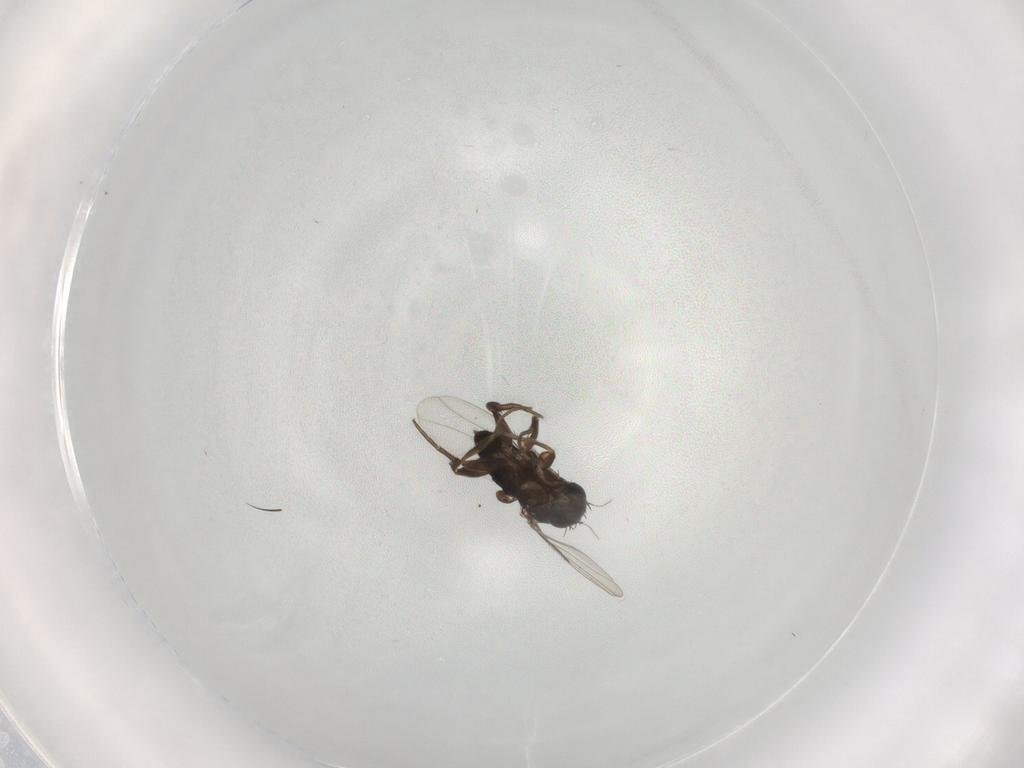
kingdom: Animalia
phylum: Arthropoda
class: Insecta
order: Diptera
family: Phoridae
